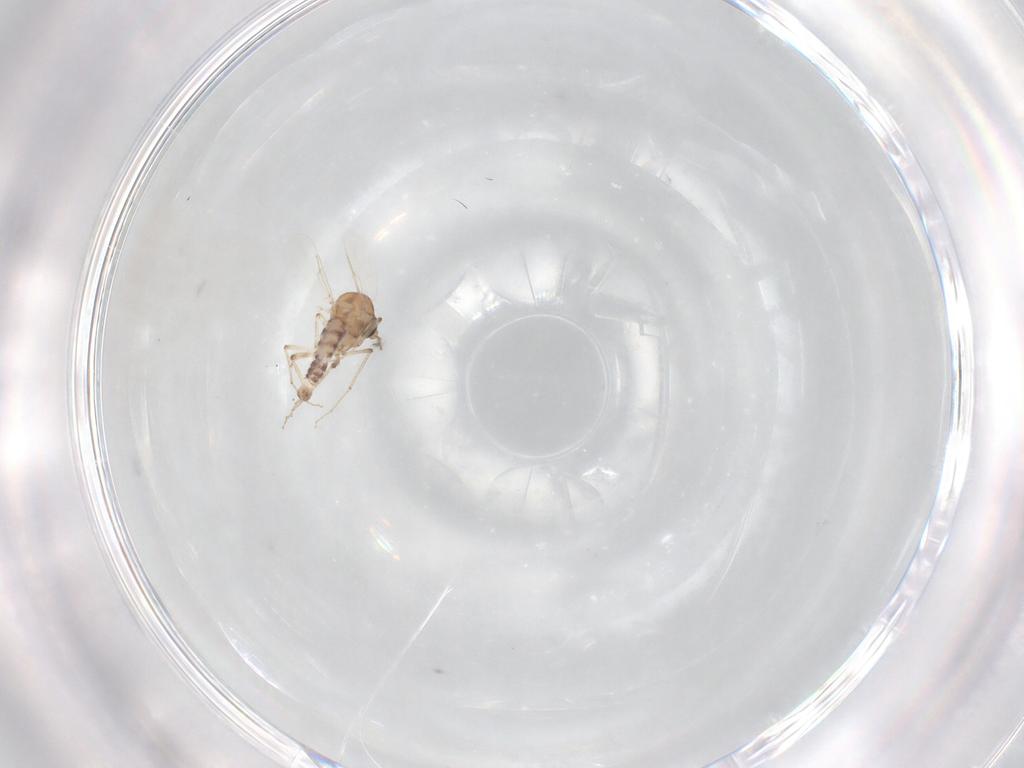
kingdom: Animalia
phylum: Arthropoda
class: Insecta
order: Diptera
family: Ceratopogonidae
